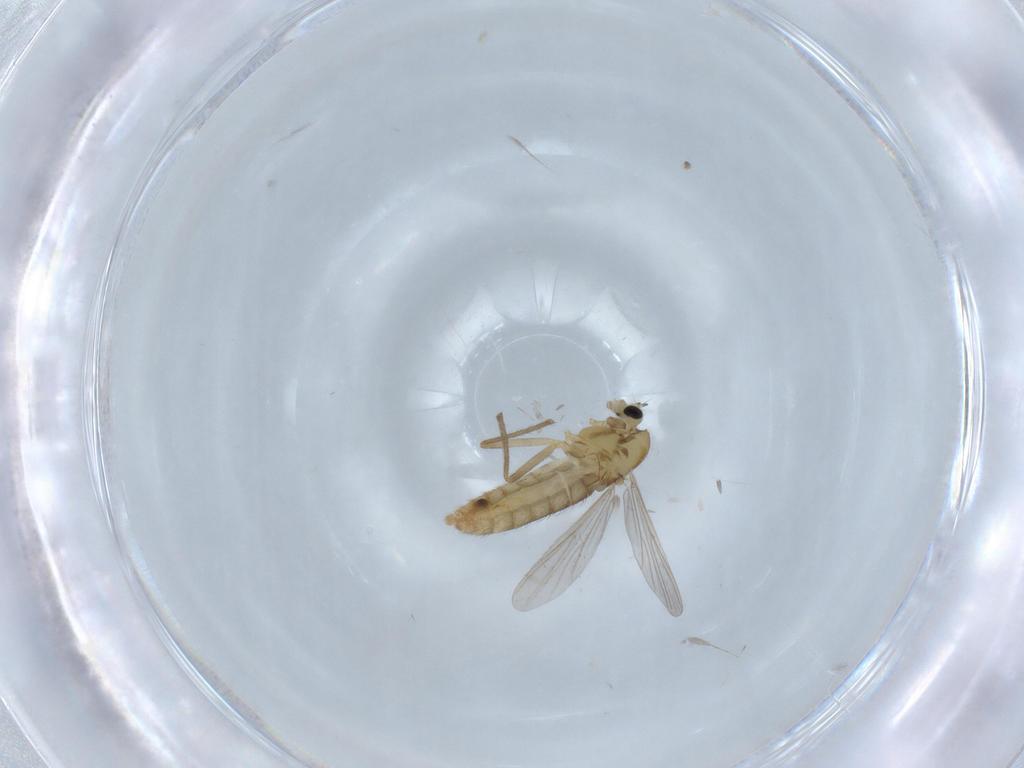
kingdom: Animalia
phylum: Arthropoda
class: Insecta
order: Diptera
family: Chironomidae
